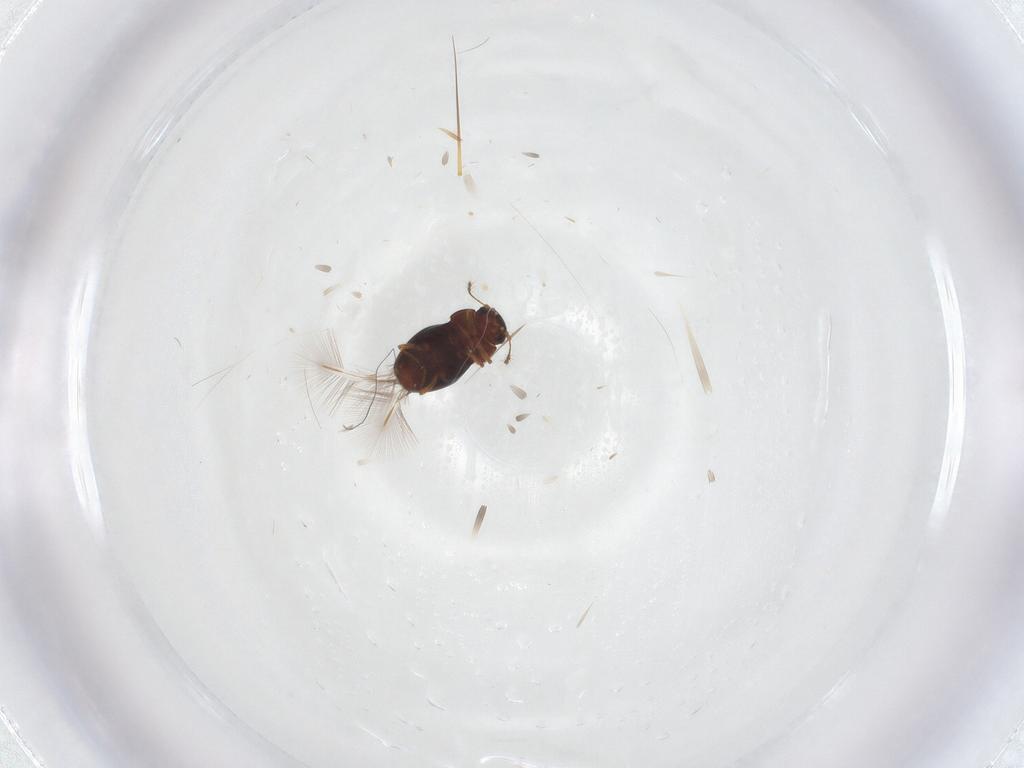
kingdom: Animalia
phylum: Arthropoda
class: Insecta
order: Coleoptera
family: Ptiliidae
